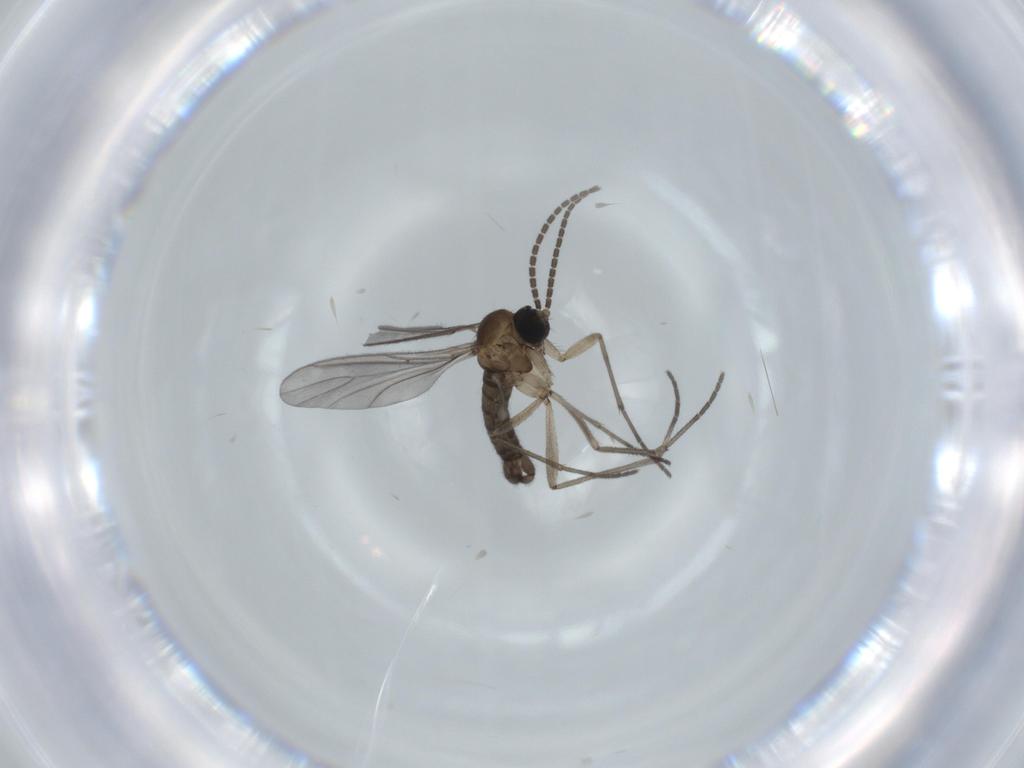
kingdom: Animalia
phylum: Arthropoda
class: Insecta
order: Diptera
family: Sciaridae
